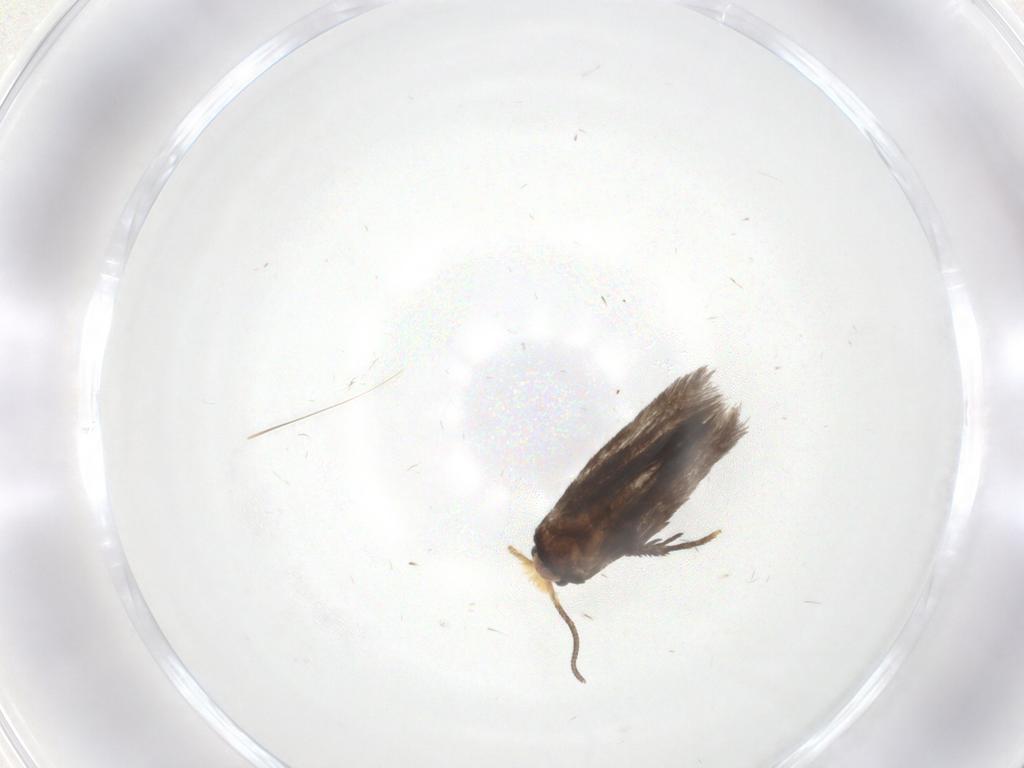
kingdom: Animalia
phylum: Arthropoda
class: Insecta
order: Lepidoptera
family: Nepticulidae
